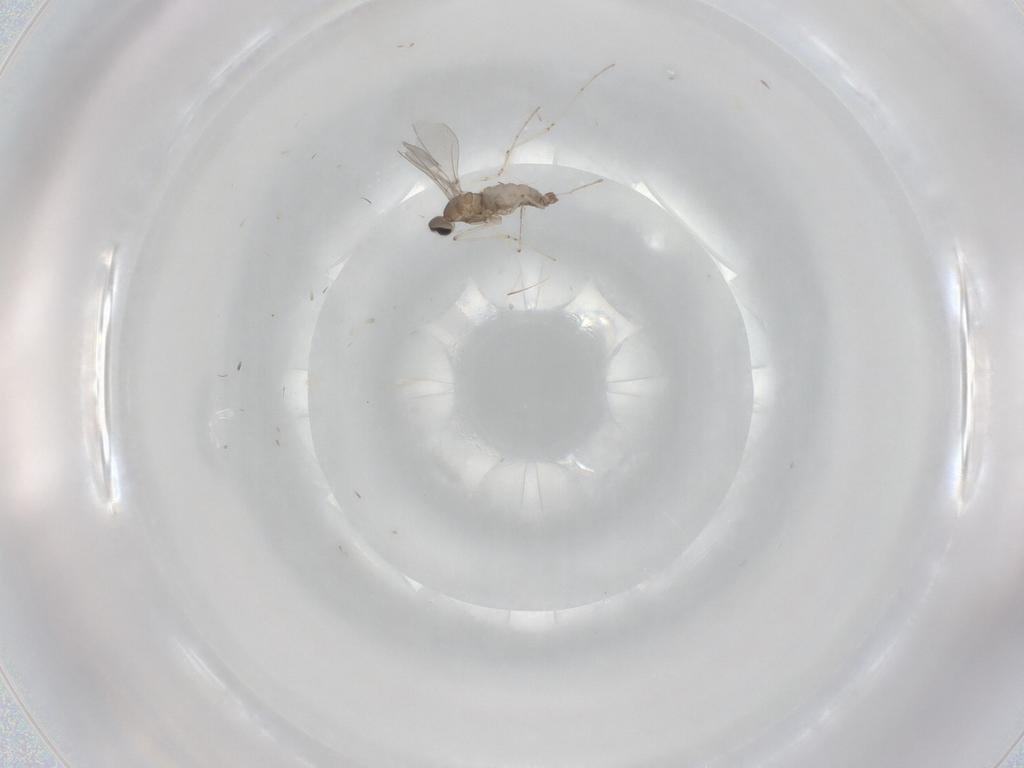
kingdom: Animalia
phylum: Arthropoda
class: Insecta
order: Diptera
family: Cecidomyiidae
